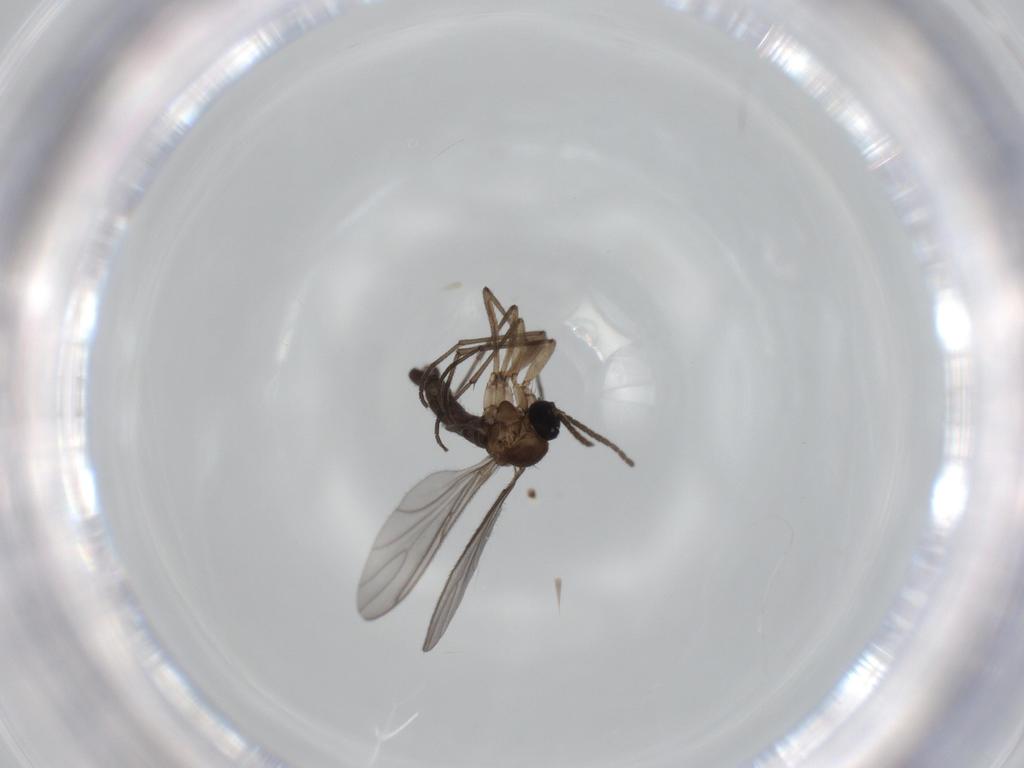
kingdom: Animalia
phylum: Arthropoda
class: Insecta
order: Diptera
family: Sciaridae
